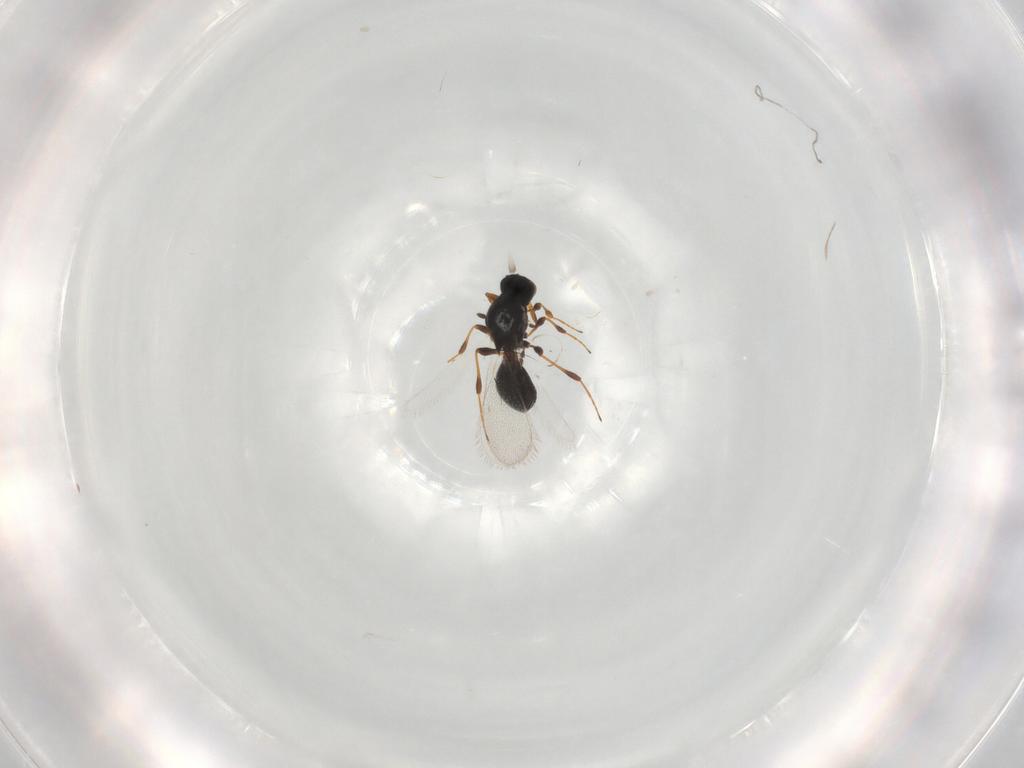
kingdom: Animalia
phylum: Arthropoda
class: Insecta
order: Hymenoptera
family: Platygastridae
